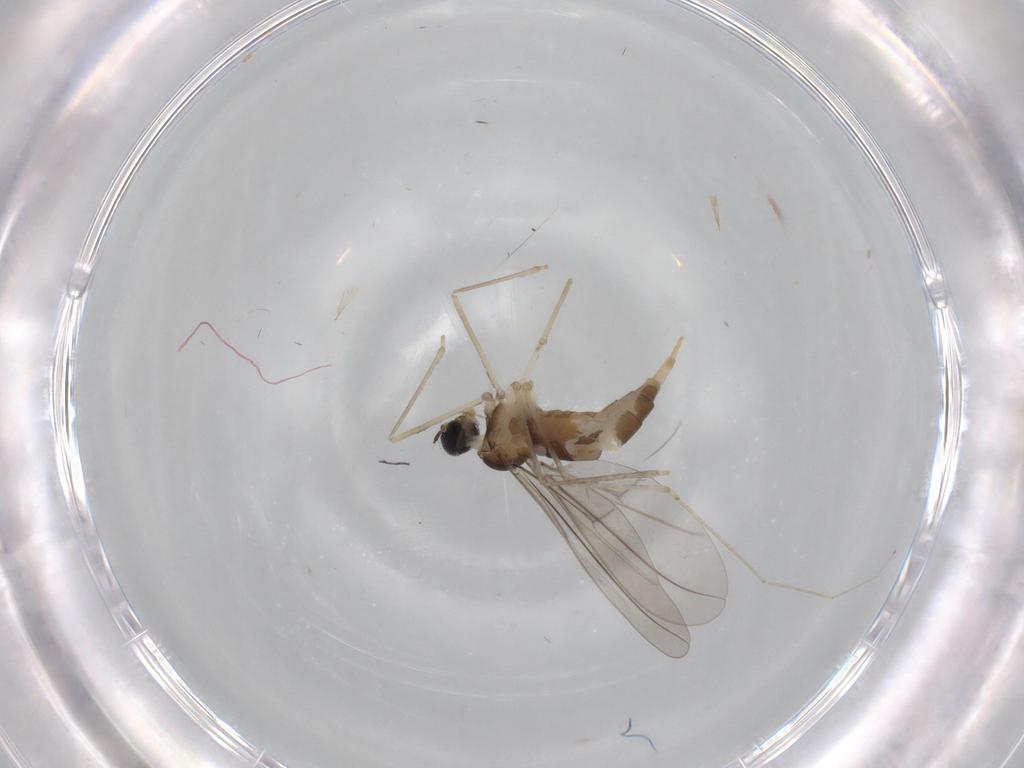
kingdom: Animalia
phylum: Arthropoda
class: Insecta
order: Diptera
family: Cecidomyiidae
